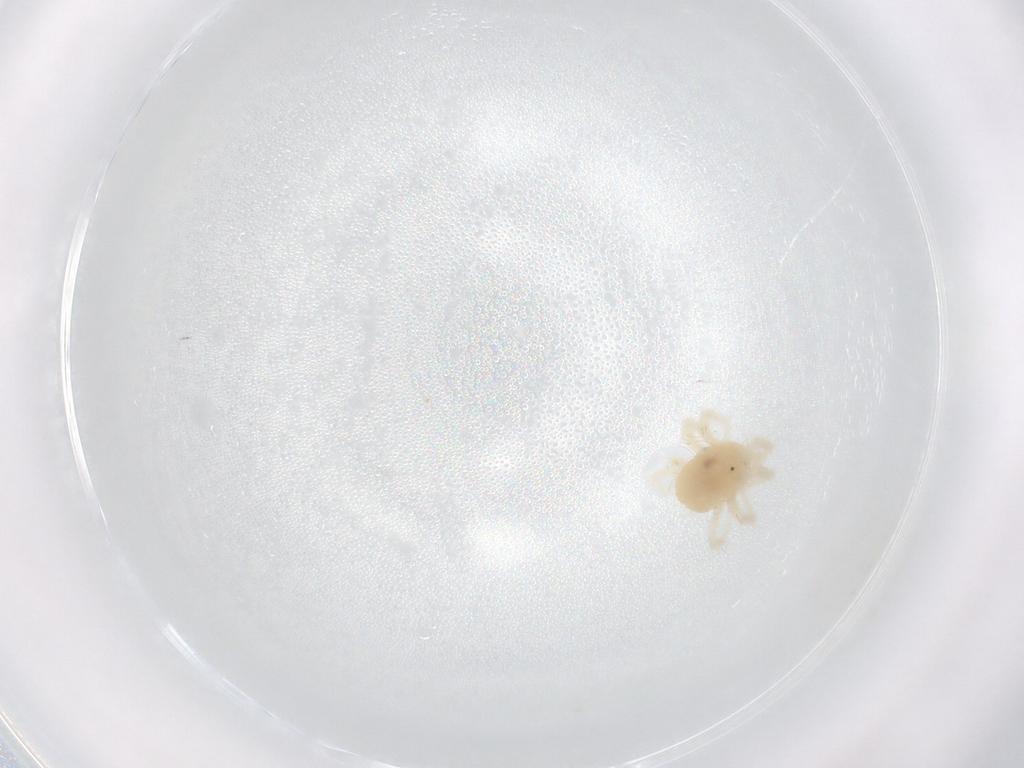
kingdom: Animalia
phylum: Arthropoda
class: Arachnida
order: Trombidiformes
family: Anystidae
